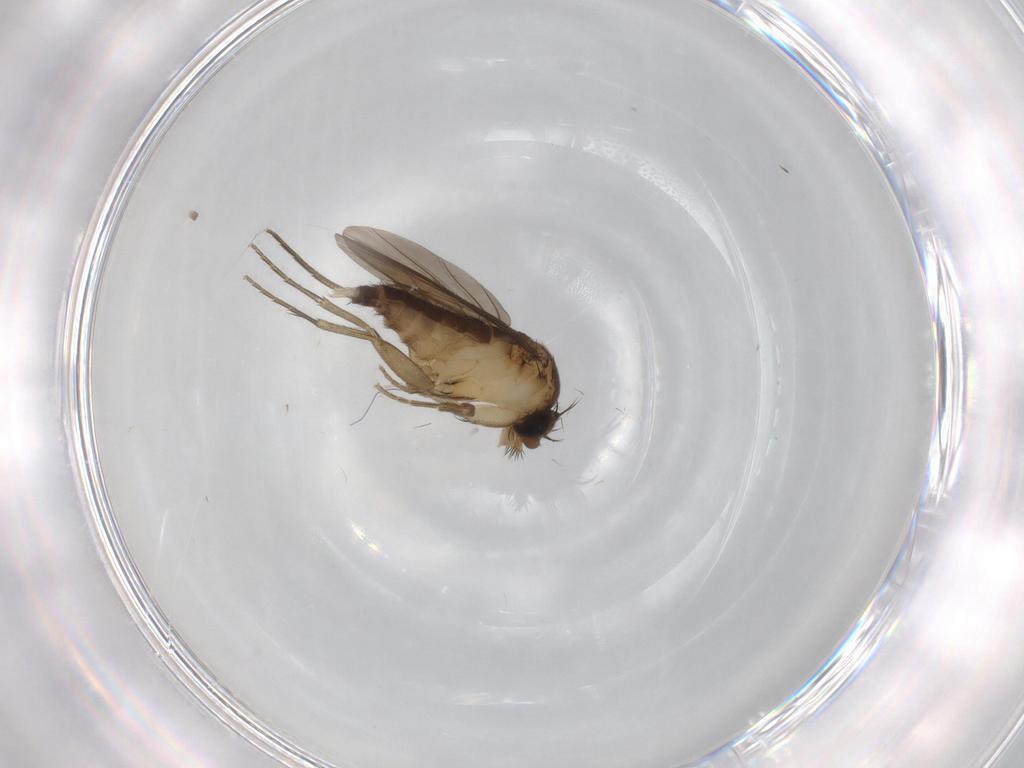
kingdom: Animalia
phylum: Arthropoda
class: Insecta
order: Diptera
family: Phoridae
